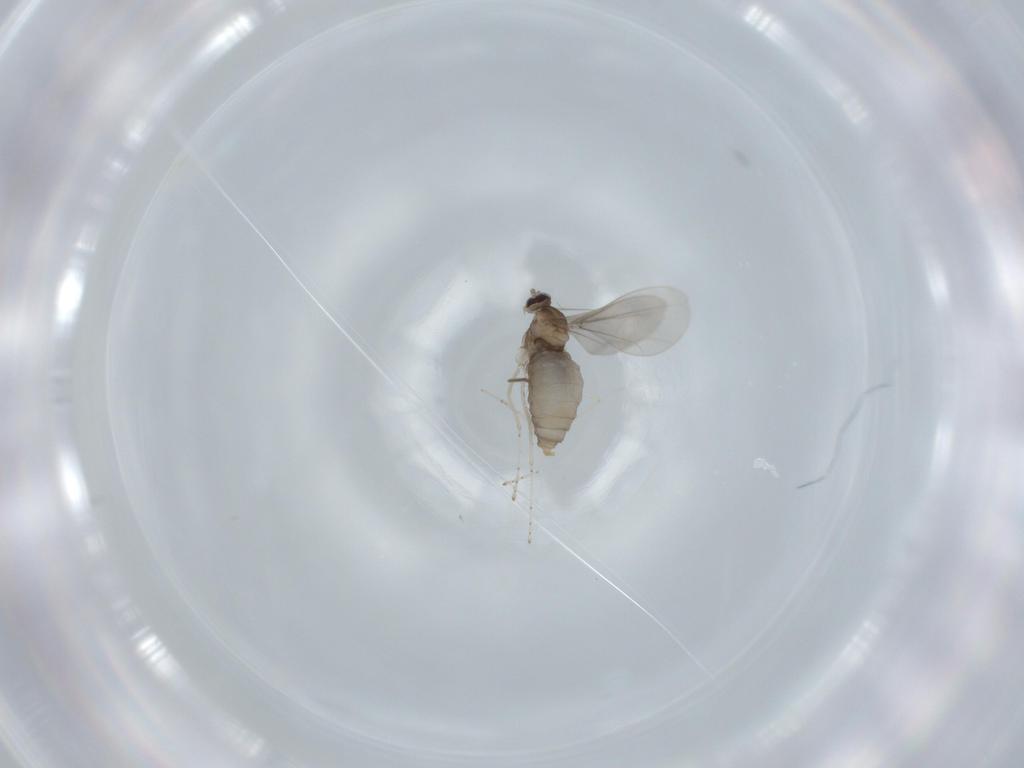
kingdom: Animalia
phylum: Arthropoda
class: Insecta
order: Diptera
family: Chironomidae
